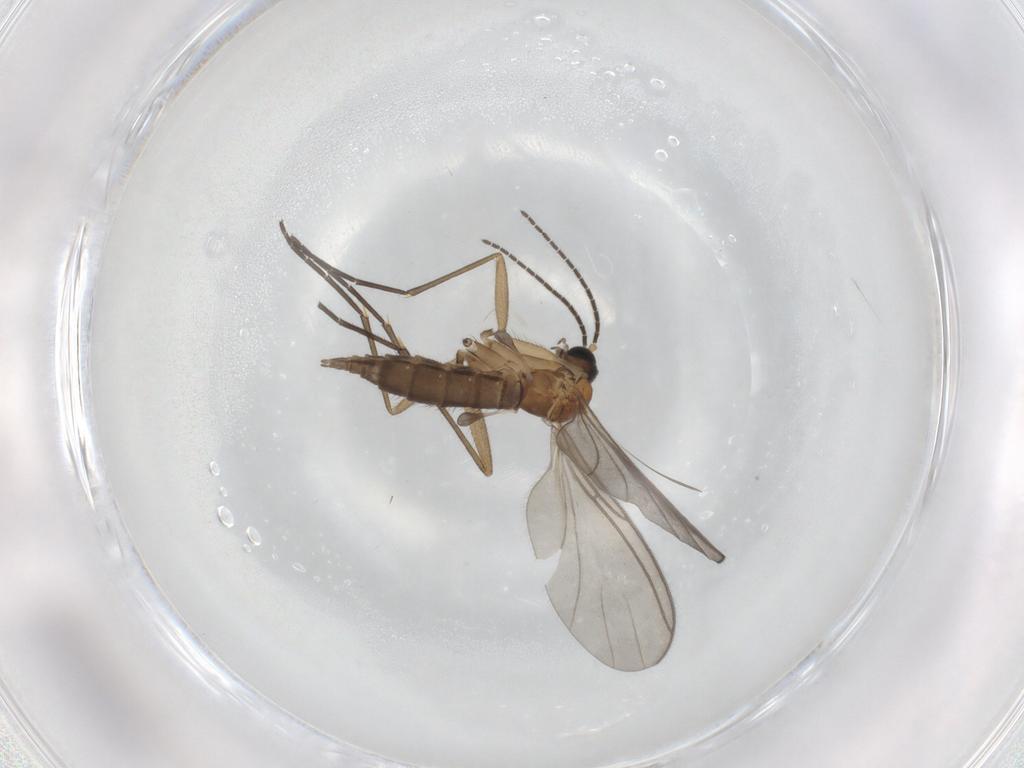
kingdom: Animalia
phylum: Arthropoda
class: Insecta
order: Diptera
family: Sciaridae
